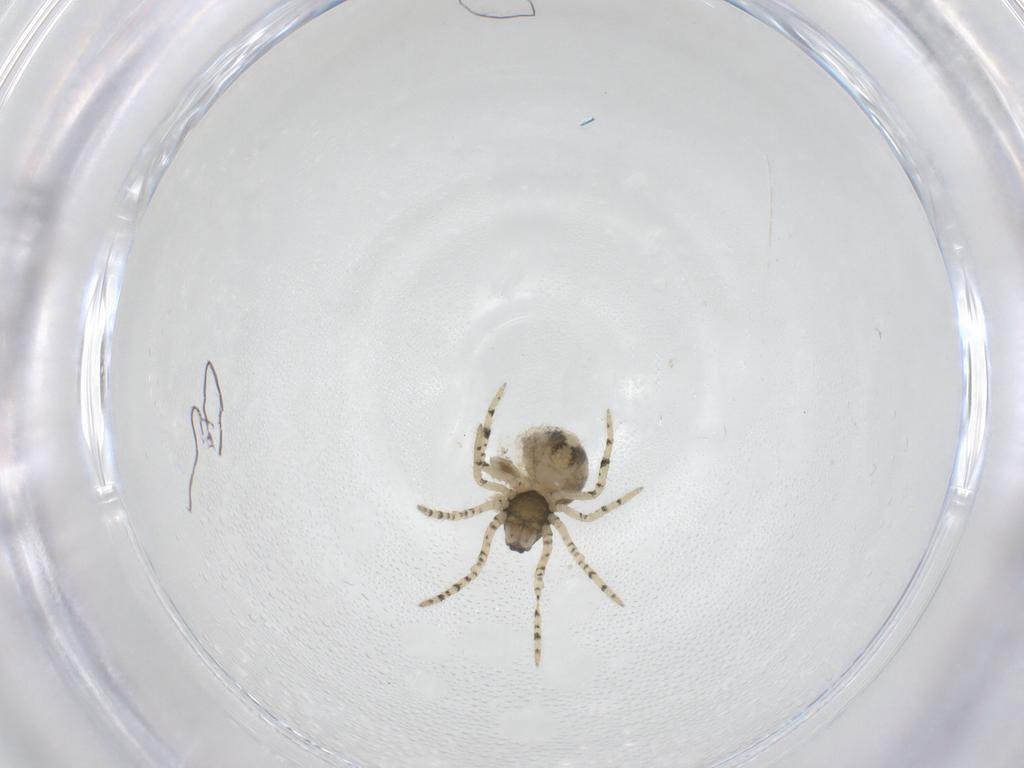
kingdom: Animalia
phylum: Arthropoda
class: Arachnida
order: Araneae
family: Theridiidae
